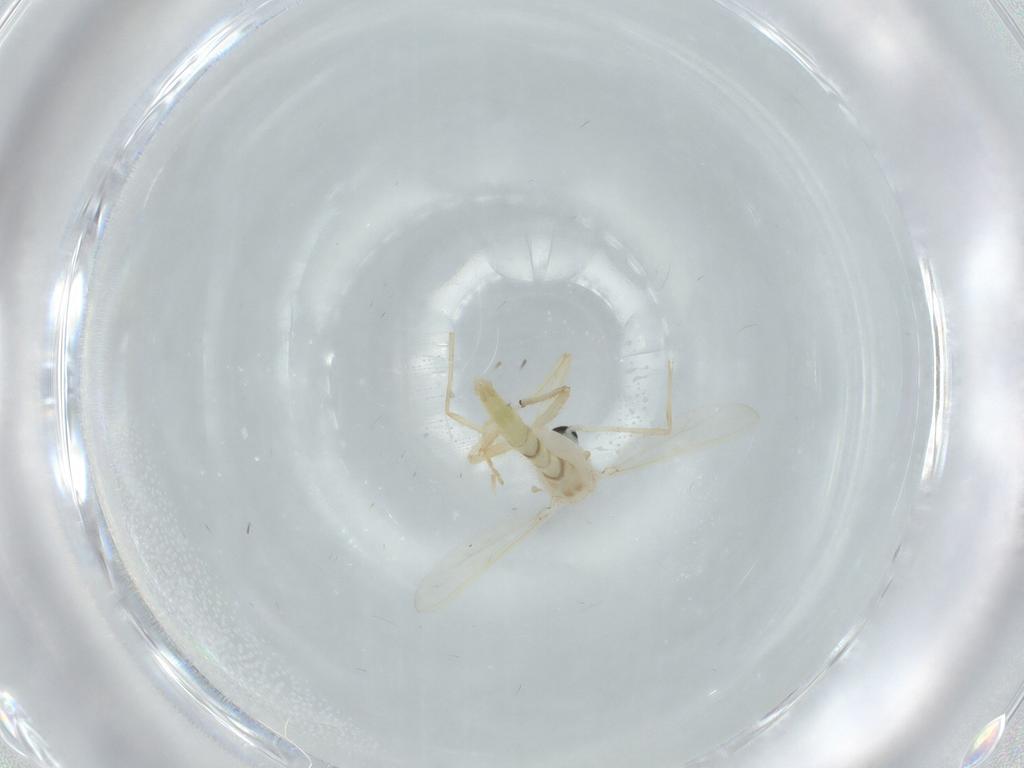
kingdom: Animalia
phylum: Arthropoda
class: Insecta
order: Diptera
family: Chironomidae
